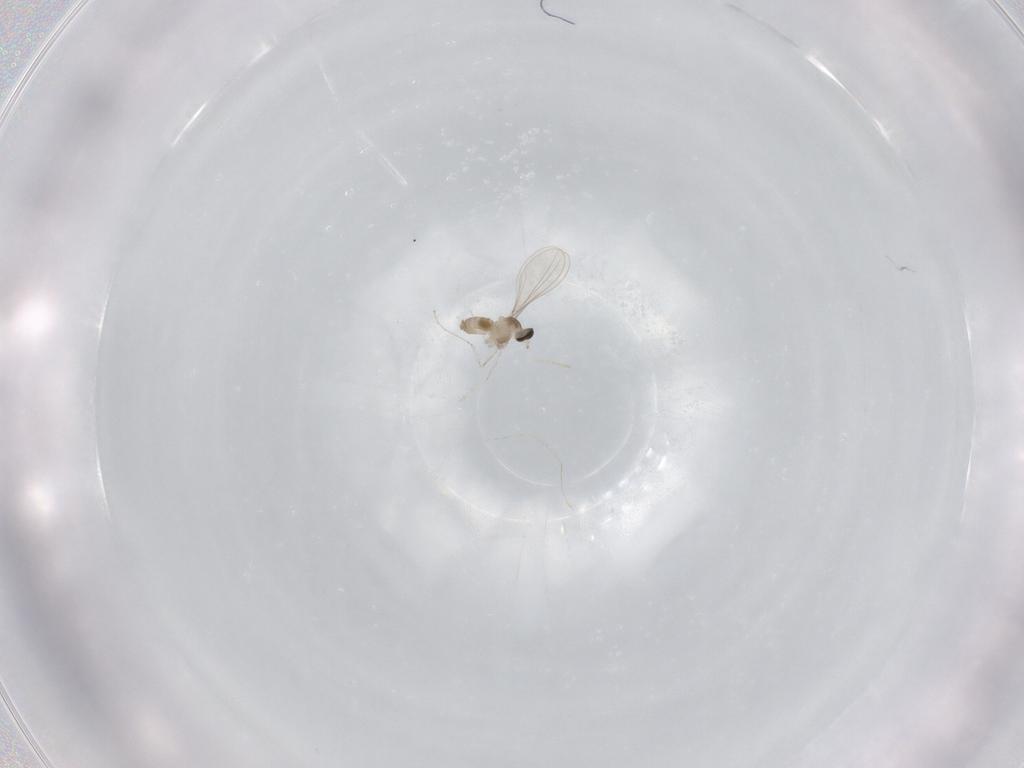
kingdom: Animalia
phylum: Arthropoda
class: Insecta
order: Diptera
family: Cecidomyiidae
